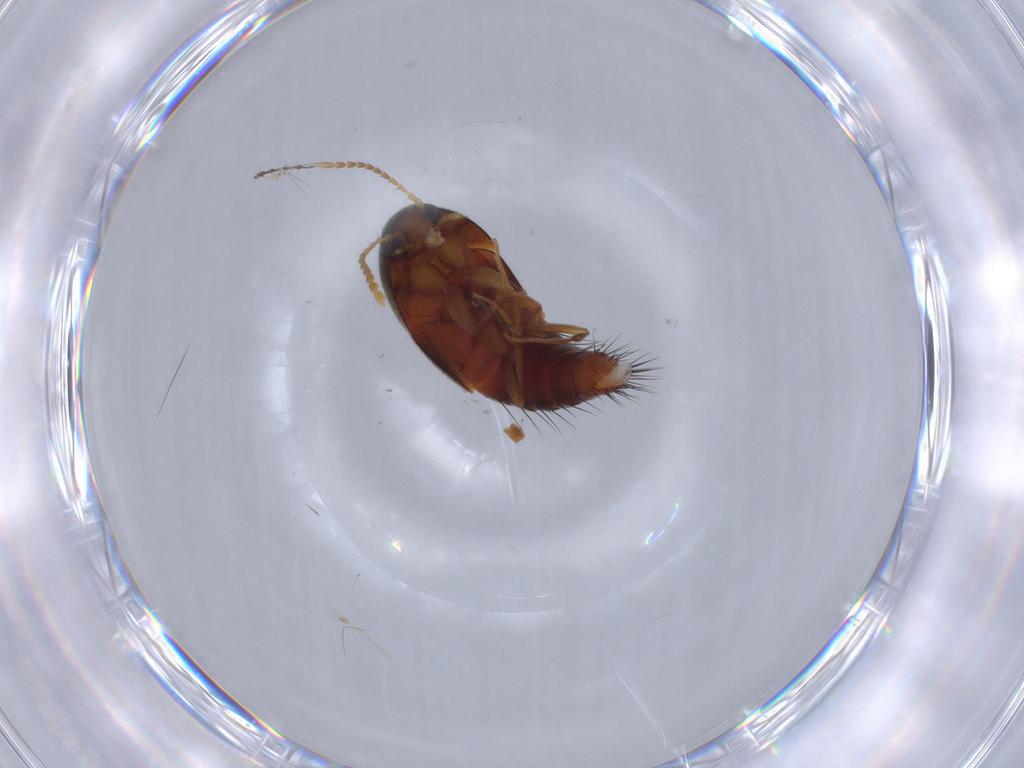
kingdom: Animalia
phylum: Arthropoda
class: Insecta
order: Coleoptera
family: Staphylinidae
